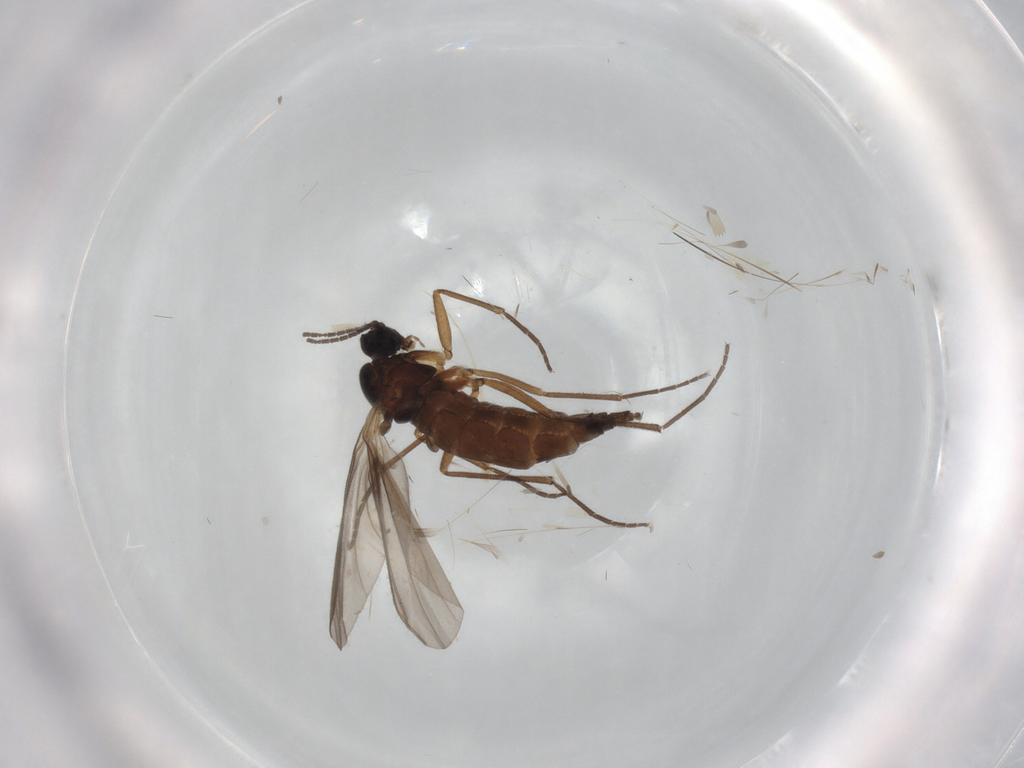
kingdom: Animalia
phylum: Arthropoda
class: Insecta
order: Diptera
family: Sciaridae
